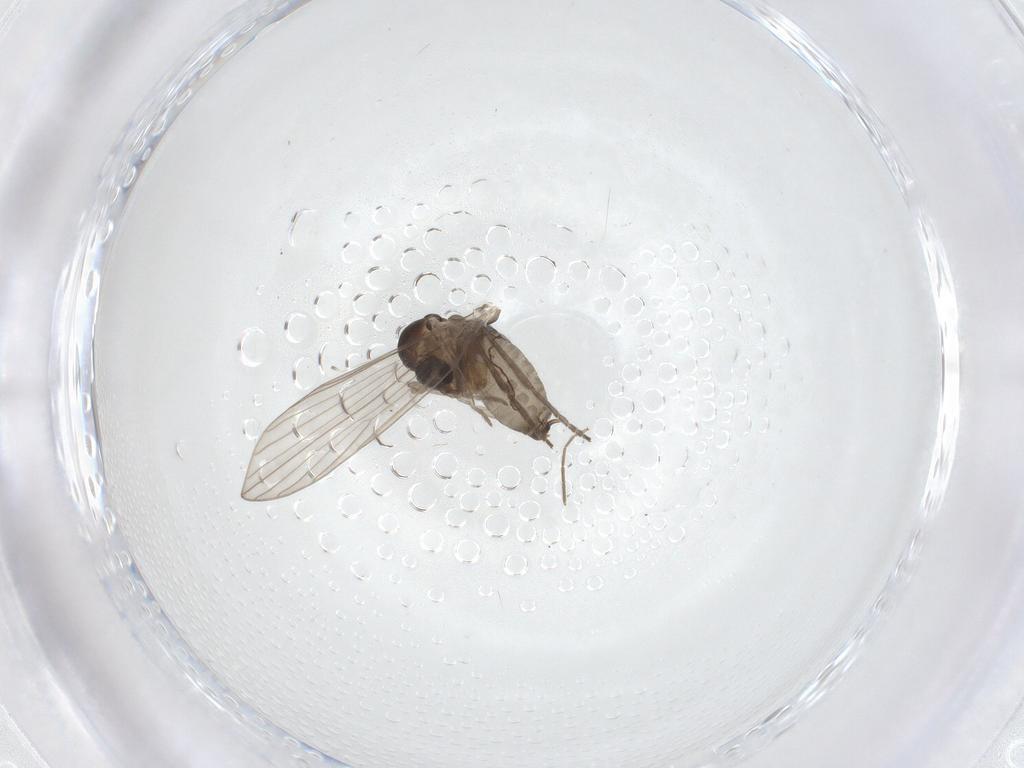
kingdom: Animalia
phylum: Arthropoda
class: Insecta
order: Diptera
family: Psychodidae
